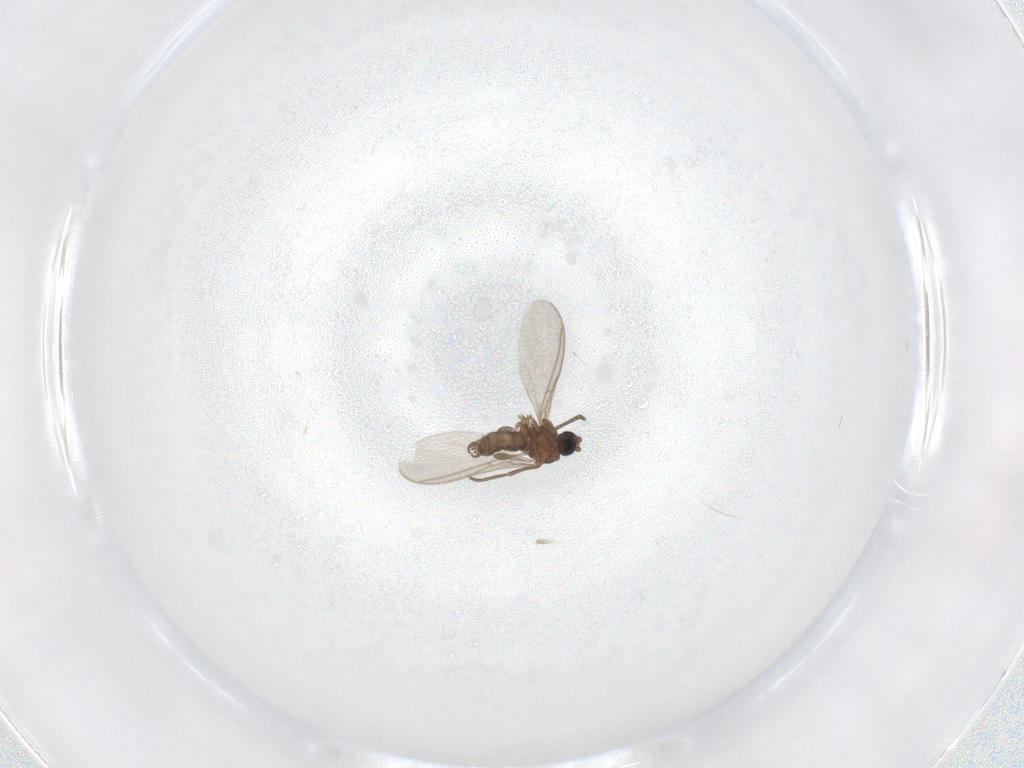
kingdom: Animalia
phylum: Arthropoda
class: Insecta
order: Diptera
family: Sciaridae
